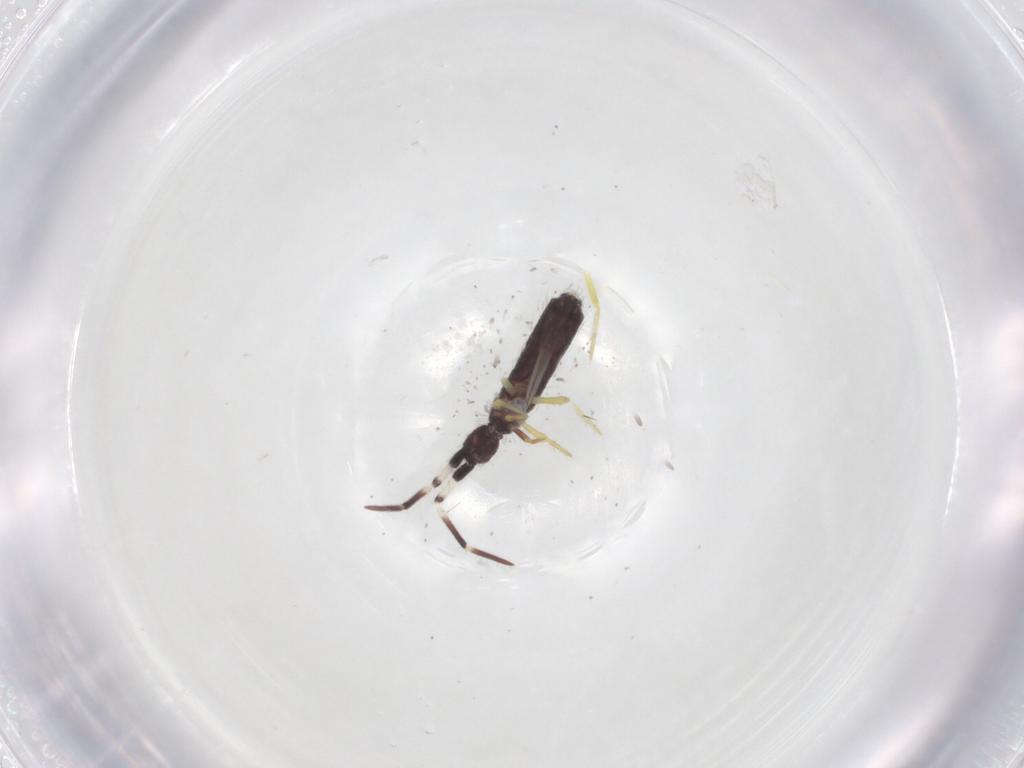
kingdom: Animalia
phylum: Arthropoda
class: Collembola
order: Entomobryomorpha
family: Entomobryidae
